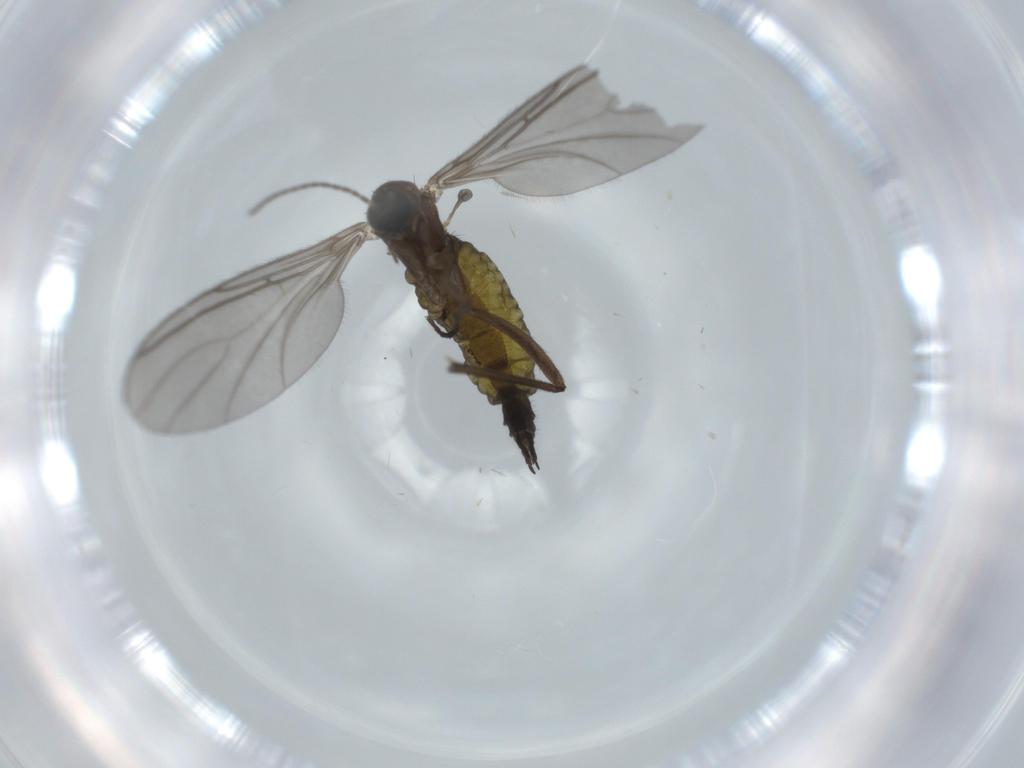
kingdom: Animalia
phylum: Arthropoda
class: Insecta
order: Diptera
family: Sciaridae
